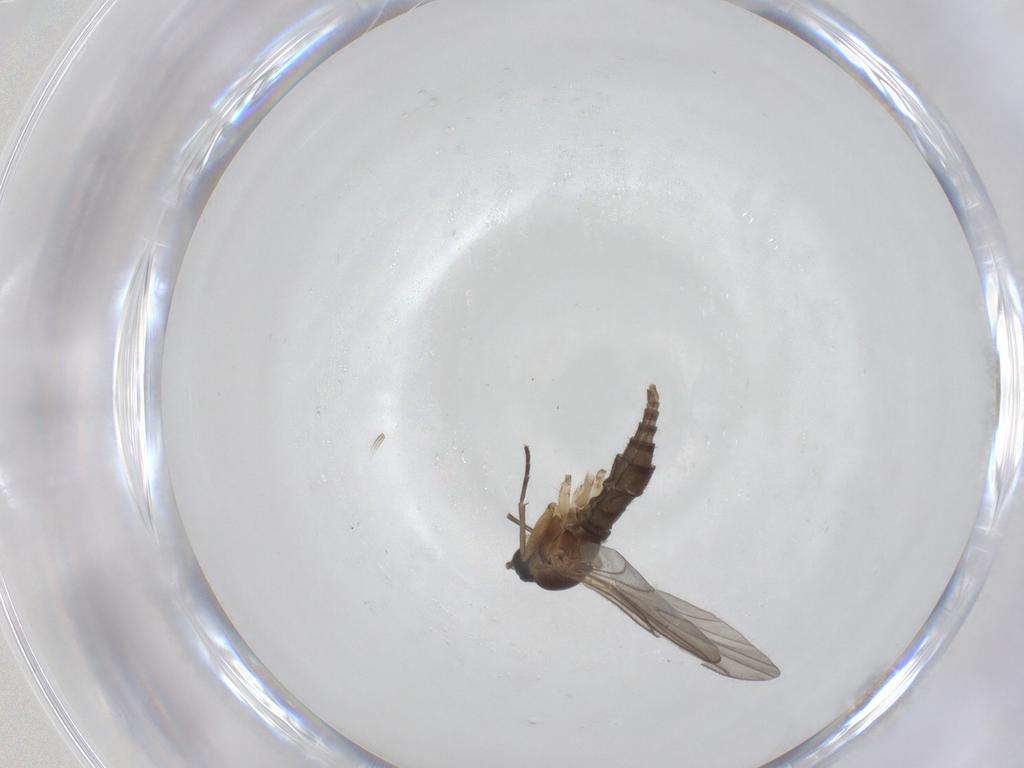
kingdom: Animalia
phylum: Arthropoda
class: Insecta
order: Diptera
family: Sciaridae
